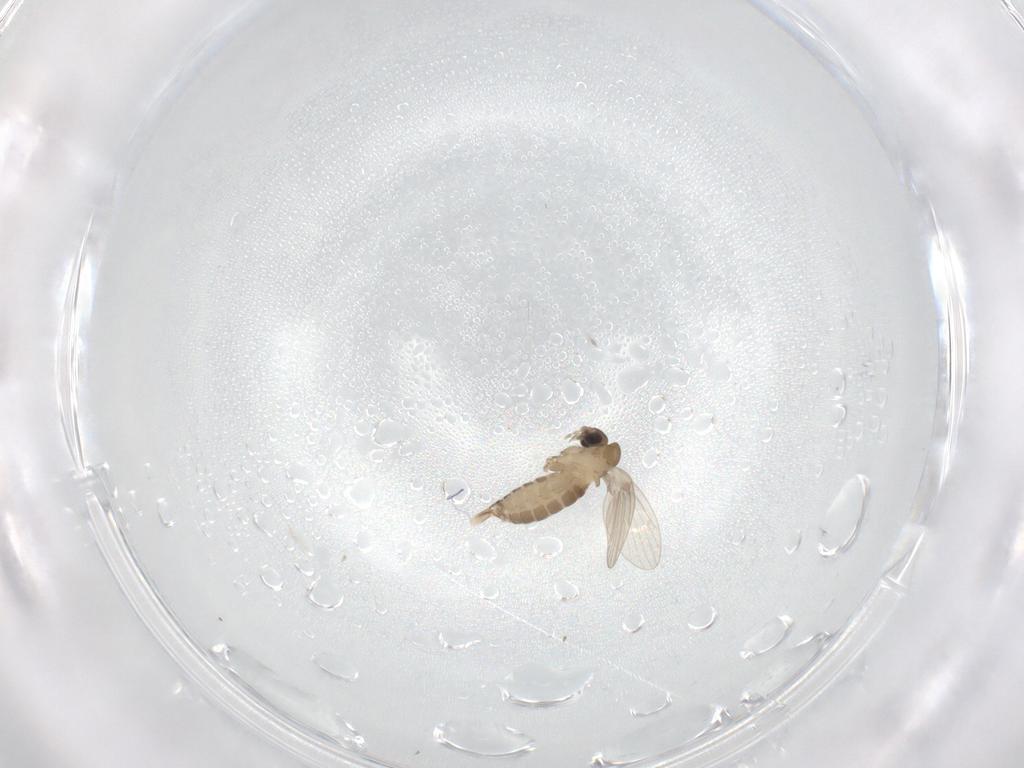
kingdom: Animalia
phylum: Arthropoda
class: Insecta
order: Diptera
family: Psychodidae
